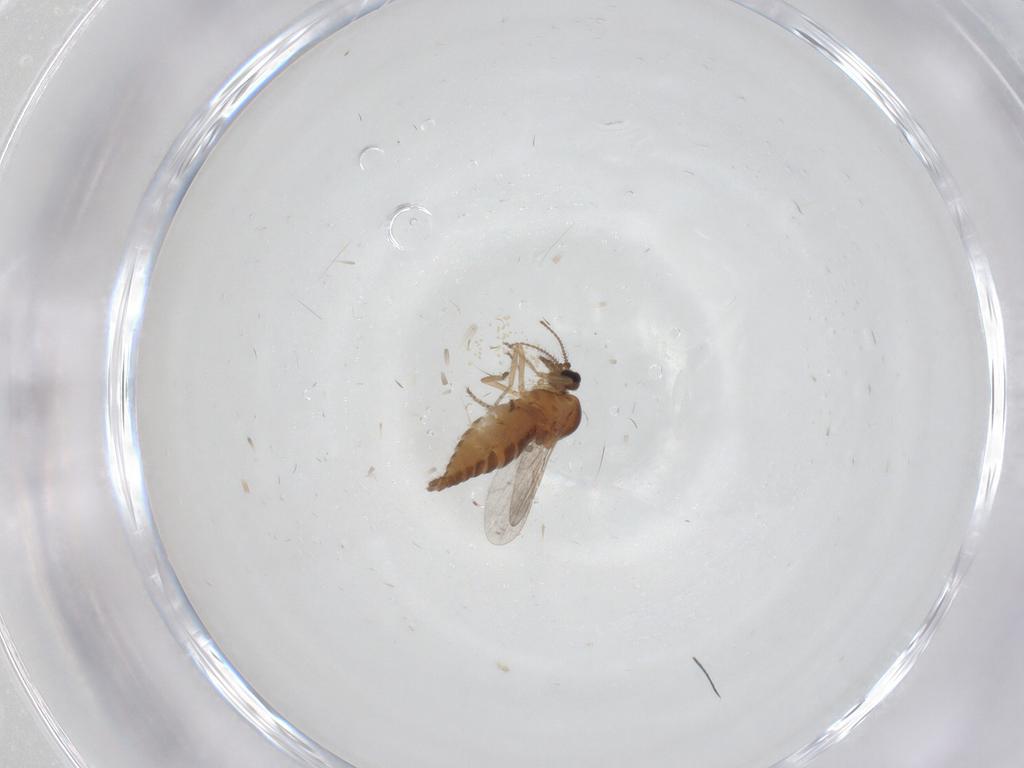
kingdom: Animalia
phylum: Arthropoda
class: Insecta
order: Diptera
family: Ceratopogonidae
